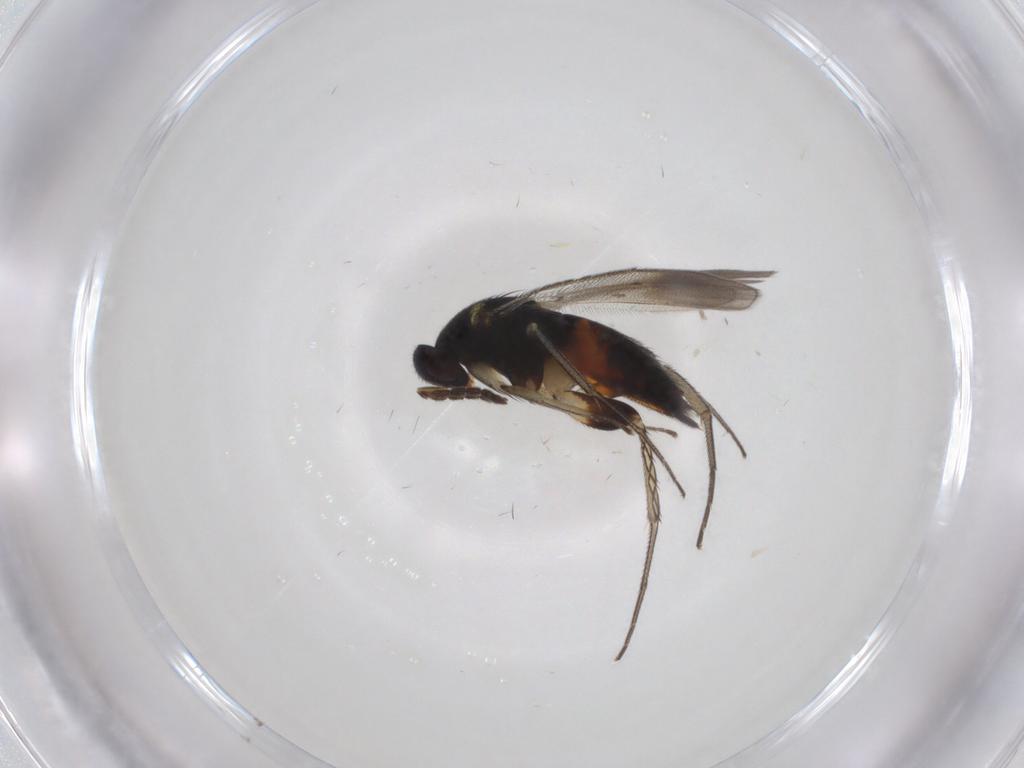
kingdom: Animalia
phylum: Arthropoda
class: Insecta
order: Hymenoptera
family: Eulophidae
